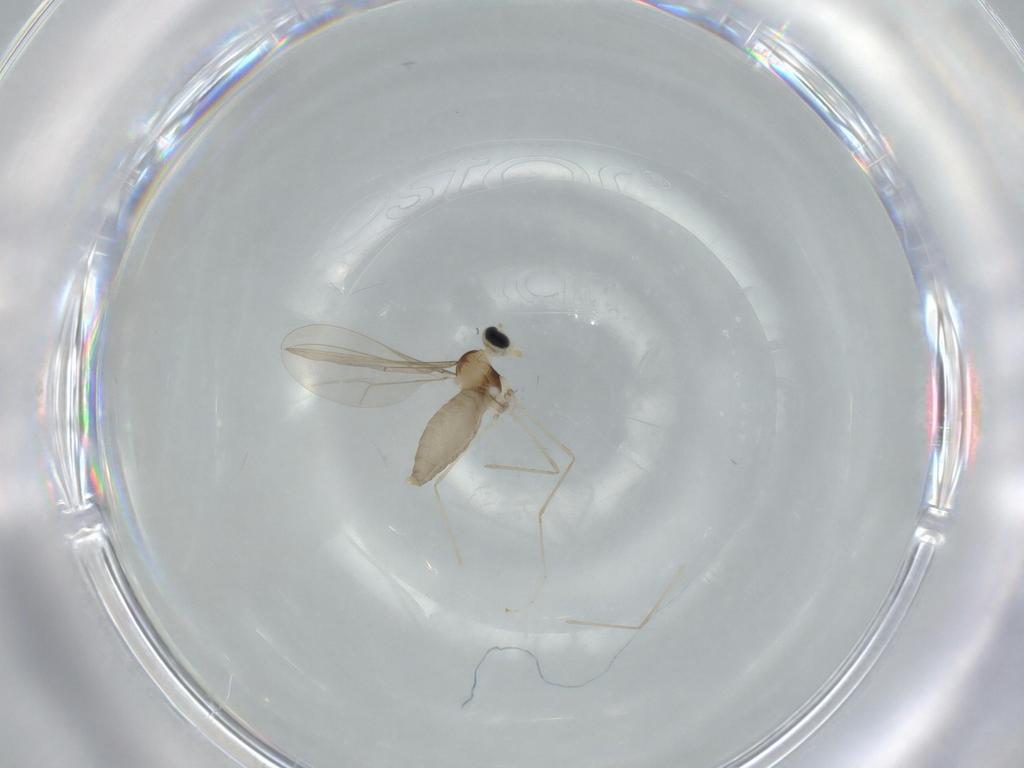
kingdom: Animalia
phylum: Arthropoda
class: Insecta
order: Diptera
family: Cecidomyiidae
